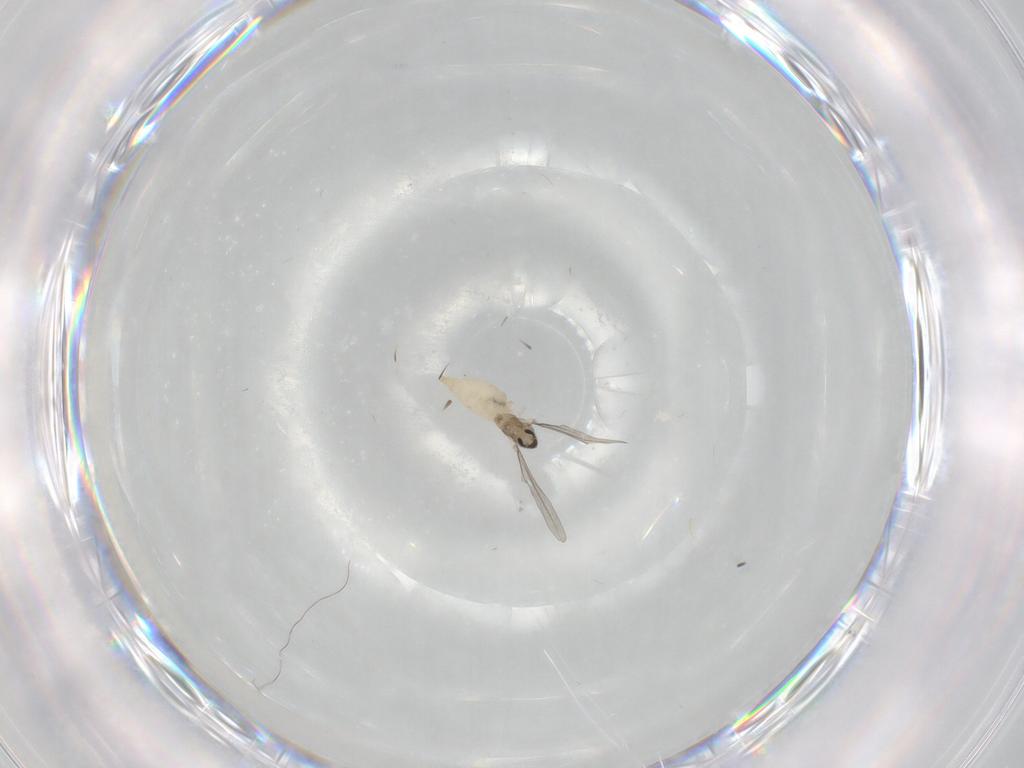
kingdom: Animalia
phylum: Arthropoda
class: Insecta
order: Diptera
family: Cecidomyiidae
